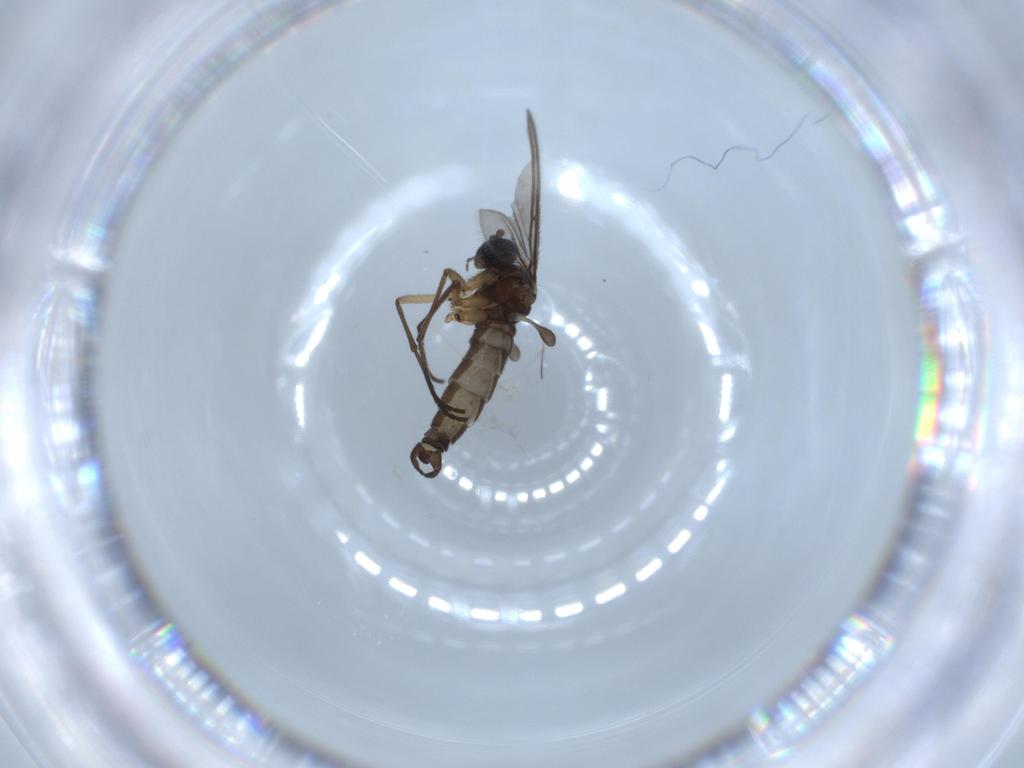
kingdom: Animalia
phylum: Arthropoda
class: Insecta
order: Diptera
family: Sciaridae
